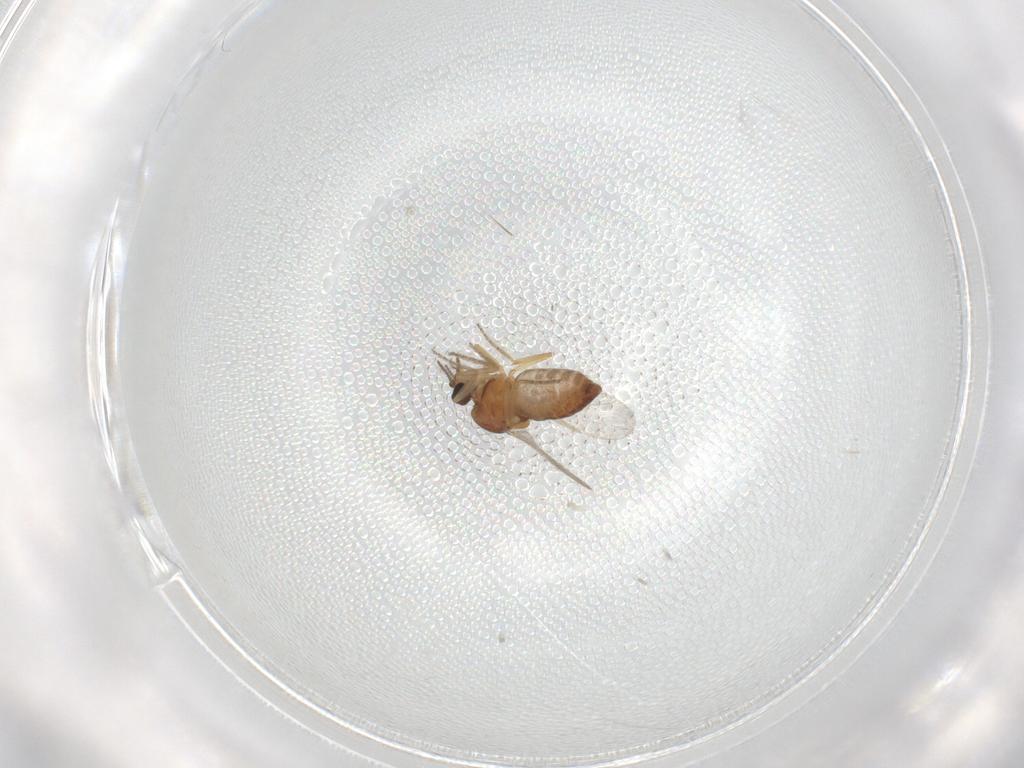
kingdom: Animalia
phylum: Arthropoda
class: Insecta
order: Diptera
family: Ceratopogonidae
